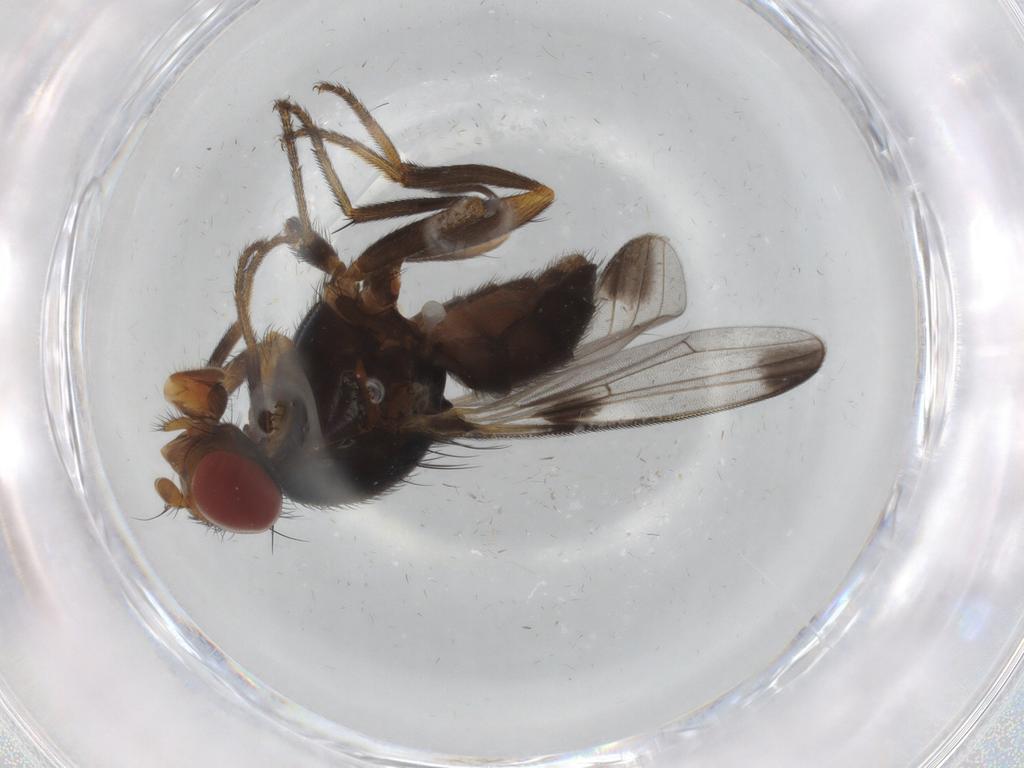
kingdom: Animalia
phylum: Arthropoda
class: Insecta
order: Diptera
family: Ulidiidae
